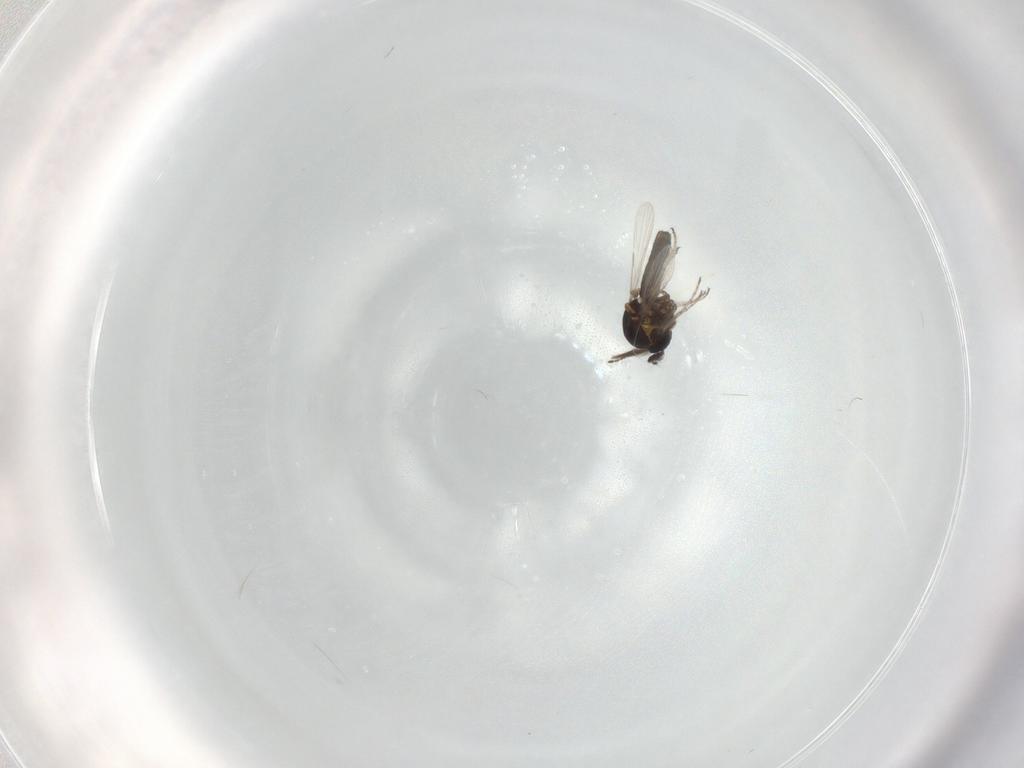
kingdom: Animalia
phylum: Arthropoda
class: Insecta
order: Diptera
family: Ceratopogonidae
